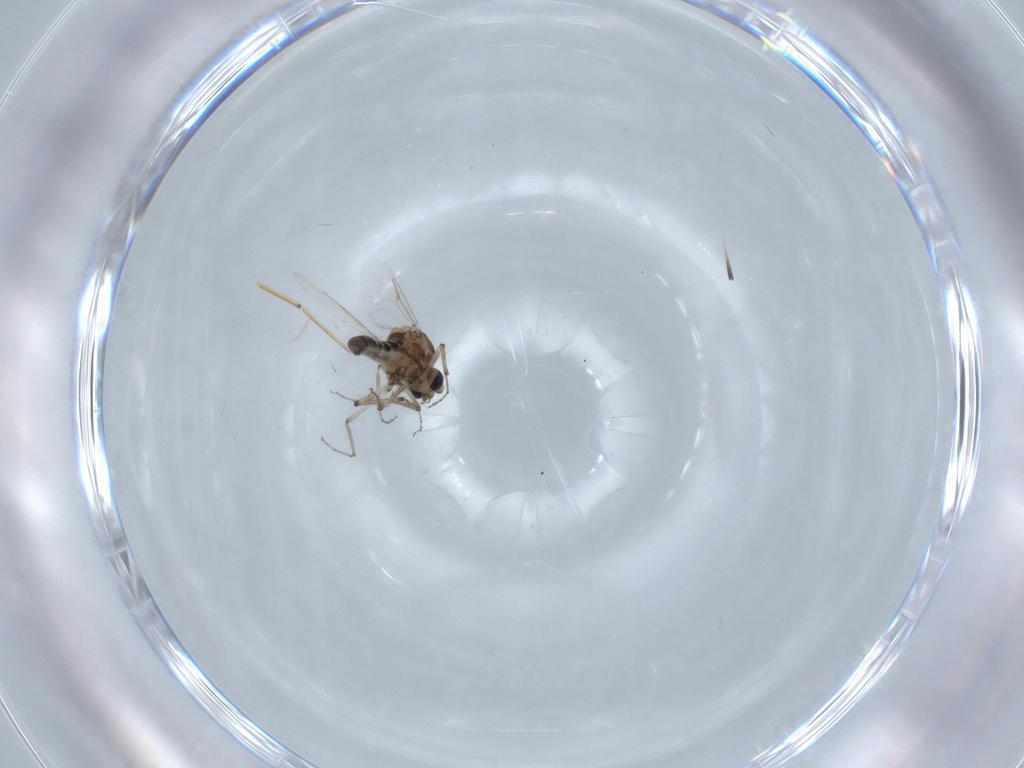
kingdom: Animalia
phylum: Arthropoda
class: Insecta
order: Diptera
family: Ceratopogonidae
